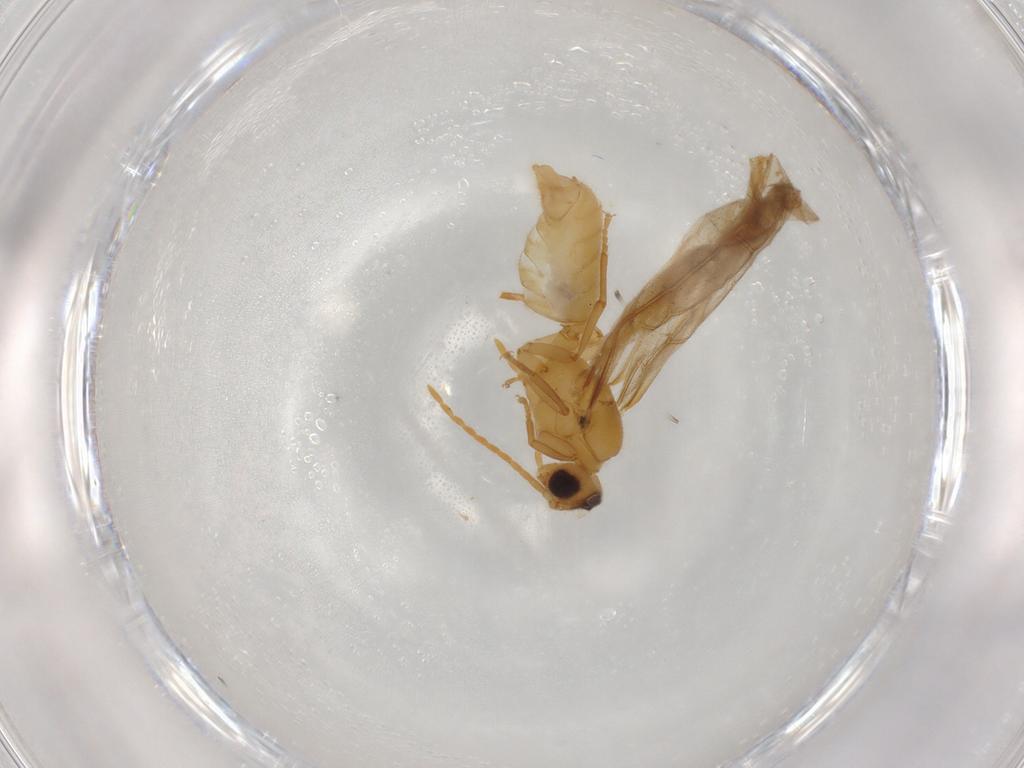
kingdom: Animalia
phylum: Arthropoda
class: Insecta
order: Hymenoptera
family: Formicidae
